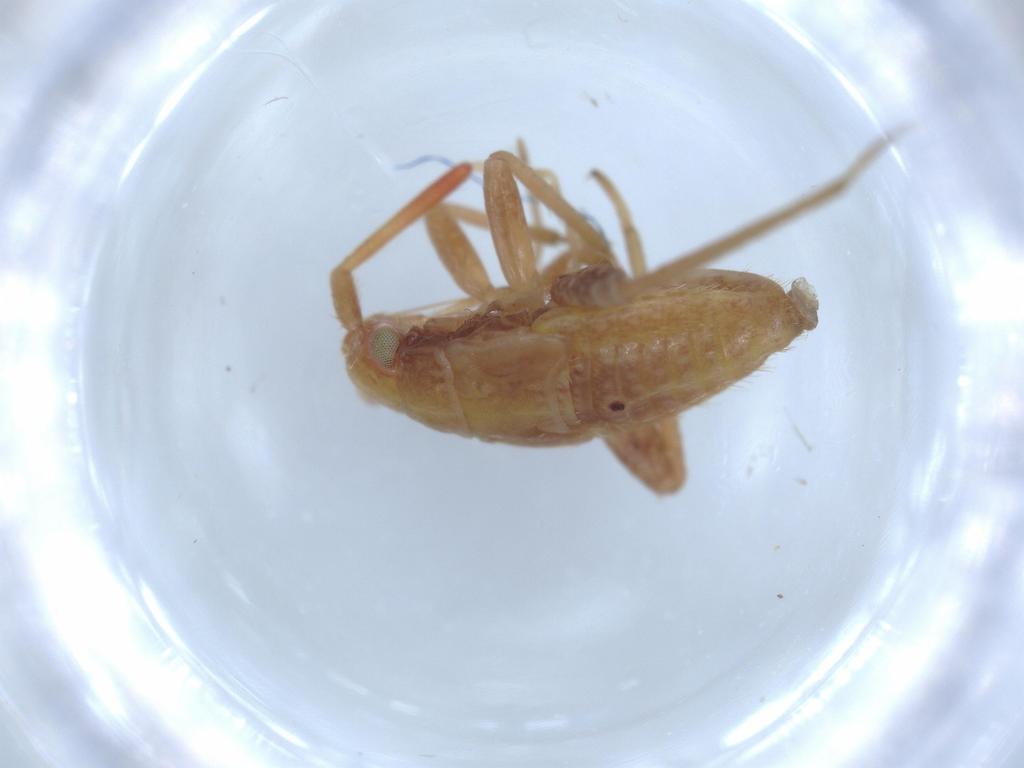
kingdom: Animalia
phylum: Arthropoda
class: Insecta
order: Hemiptera
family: Miridae
